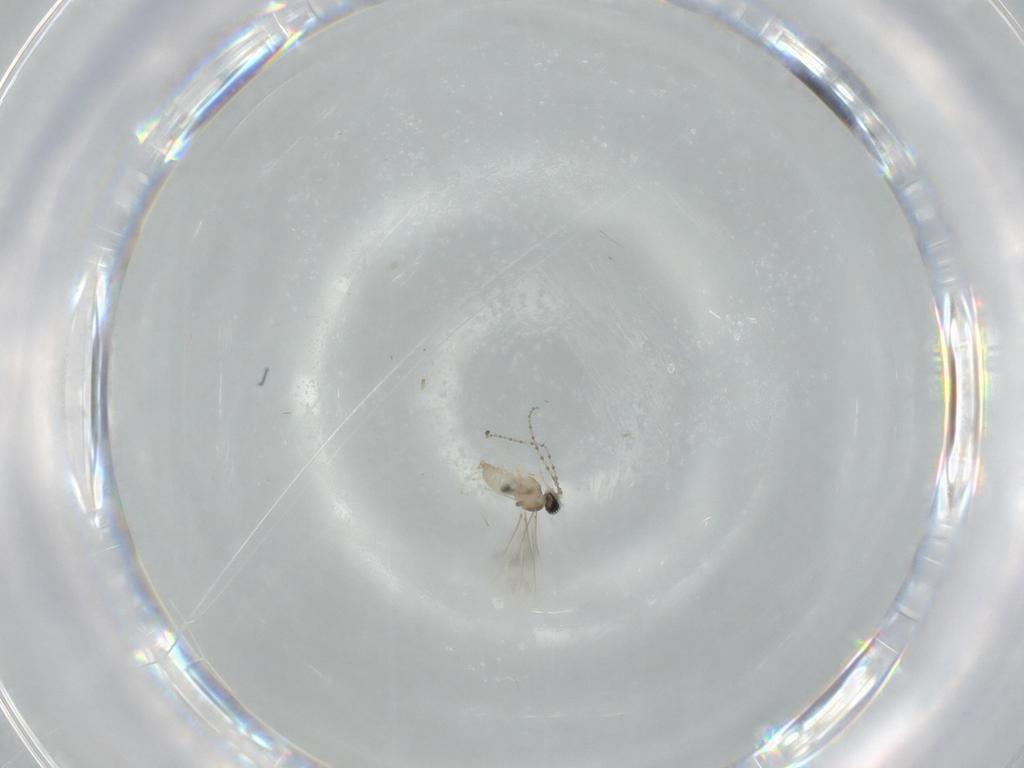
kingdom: Animalia
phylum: Arthropoda
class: Insecta
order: Diptera
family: Cecidomyiidae
